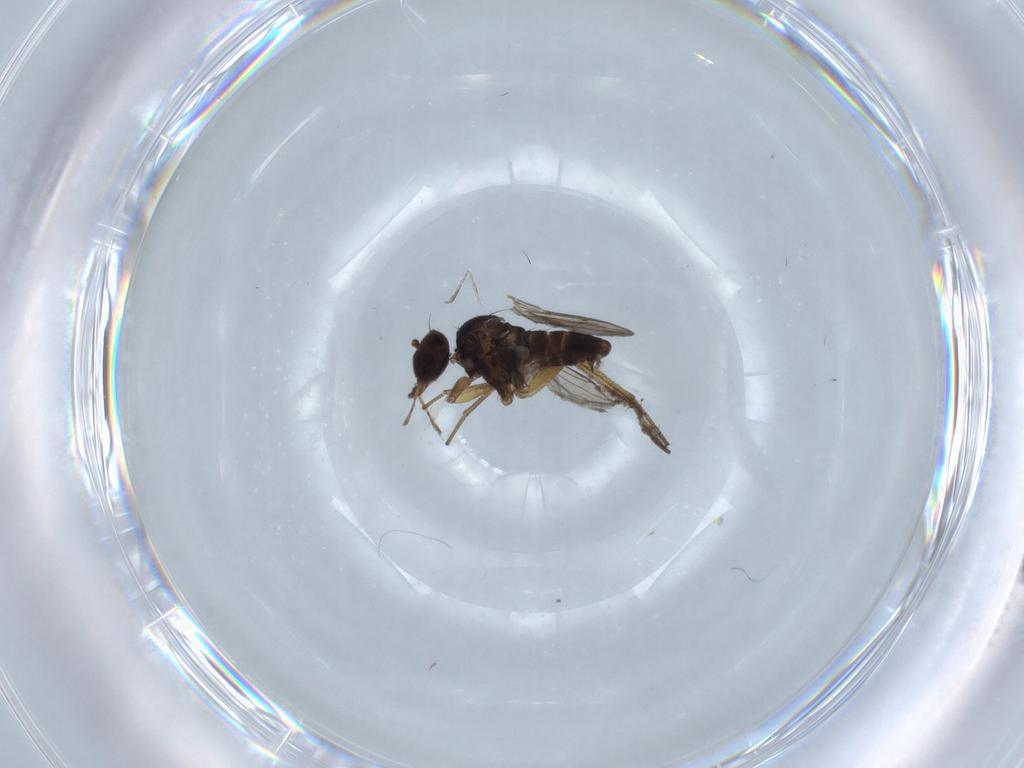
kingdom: Animalia
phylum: Arthropoda
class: Insecta
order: Diptera
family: Dolichopodidae
